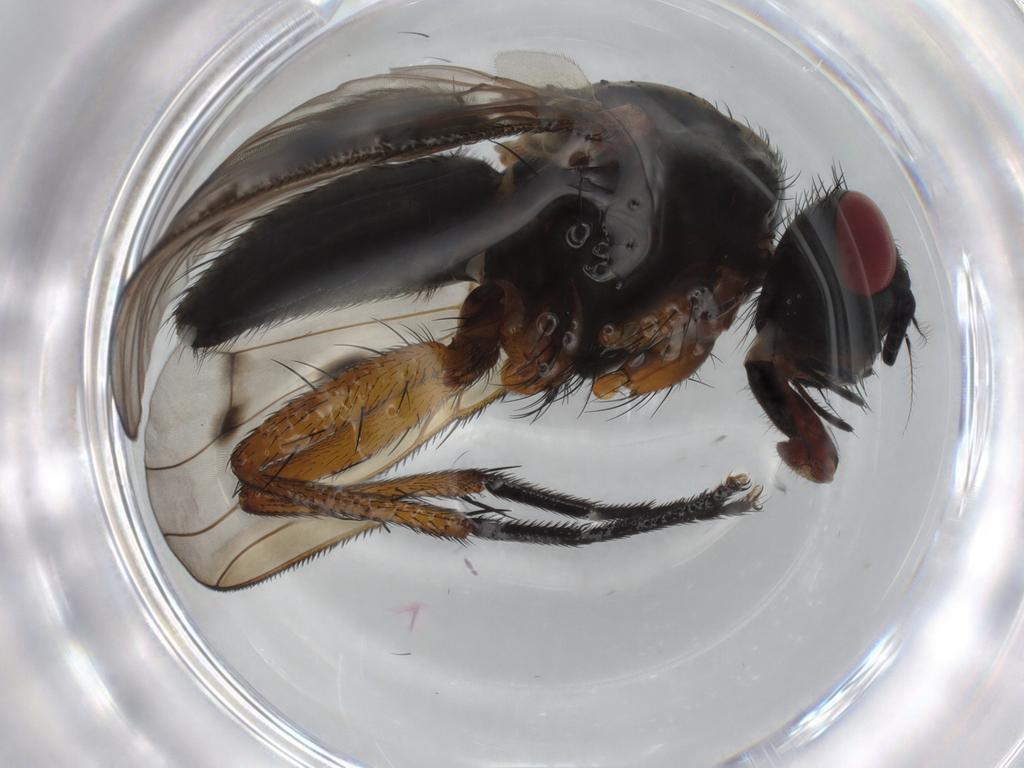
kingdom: Animalia
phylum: Arthropoda
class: Insecta
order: Diptera
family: Muscidae
